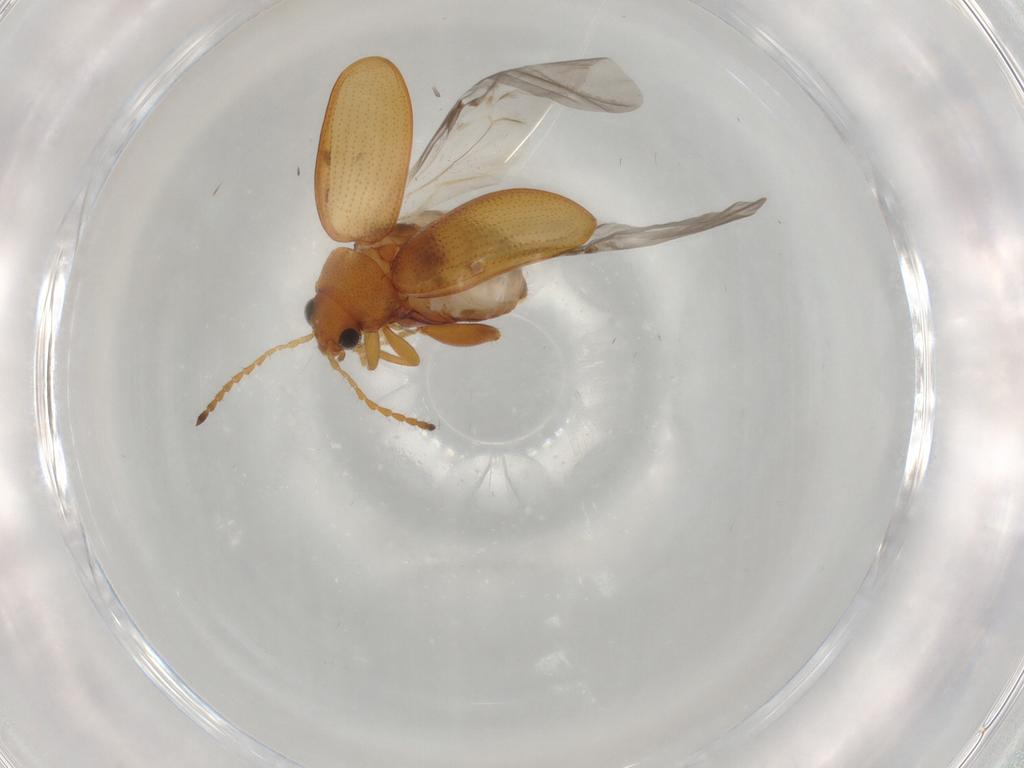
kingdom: Animalia
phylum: Arthropoda
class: Insecta
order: Coleoptera
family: Chrysomelidae
